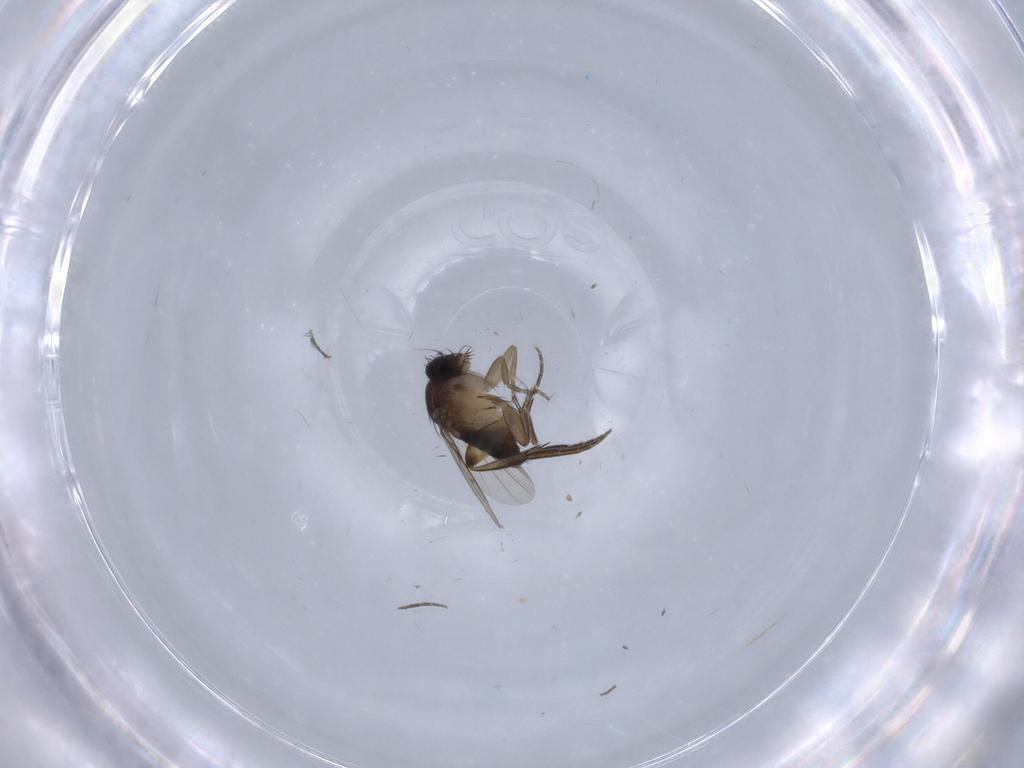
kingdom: Animalia
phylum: Arthropoda
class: Insecta
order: Diptera
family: Phoridae
